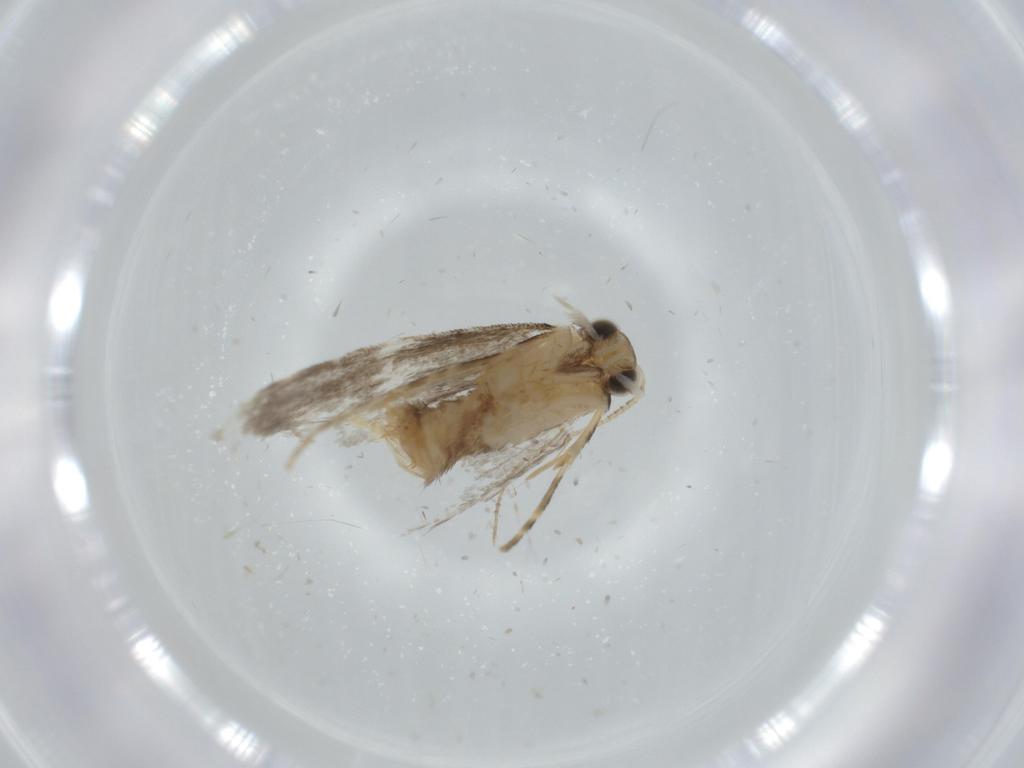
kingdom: Animalia
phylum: Arthropoda
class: Insecta
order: Lepidoptera
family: Tineidae
